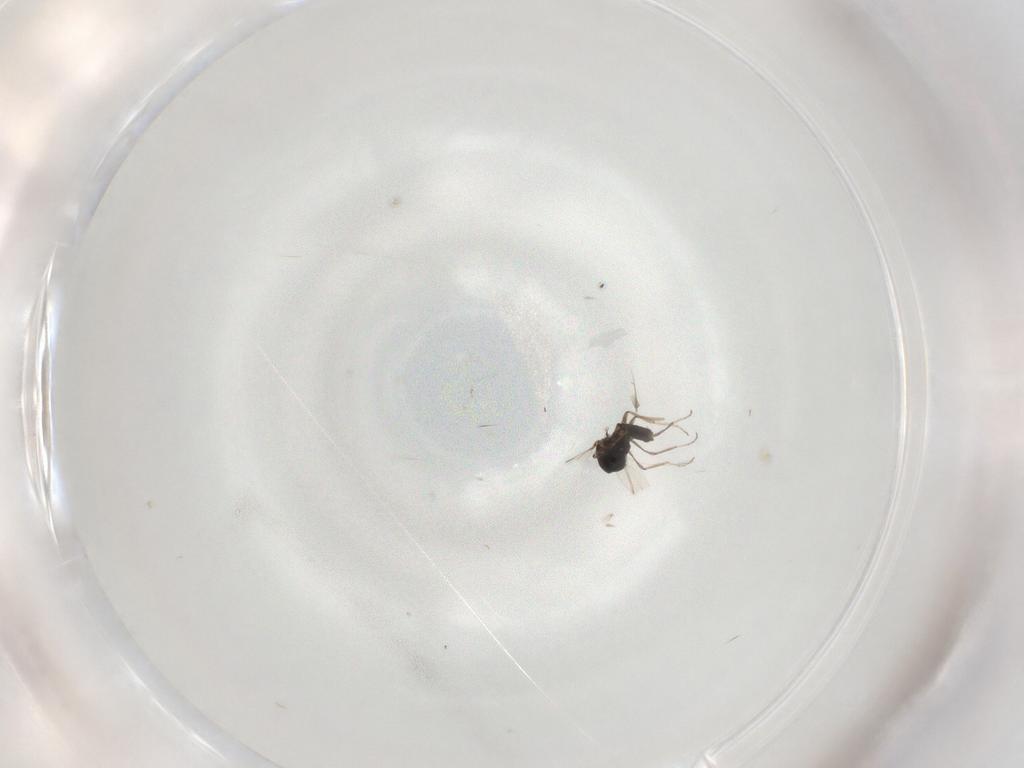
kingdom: Animalia
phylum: Arthropoda
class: Insecta
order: Diptera
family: Ceratopogonidae
